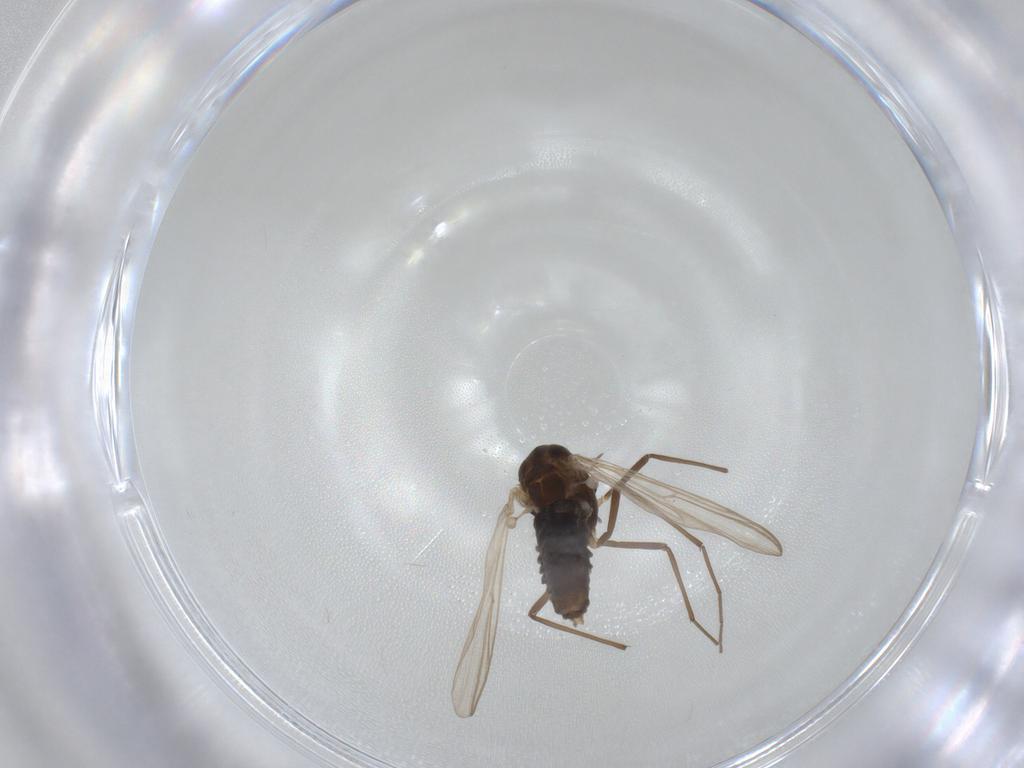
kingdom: Animalia
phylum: Arthropoda
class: Insecta
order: Diptera
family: Chironomidae
